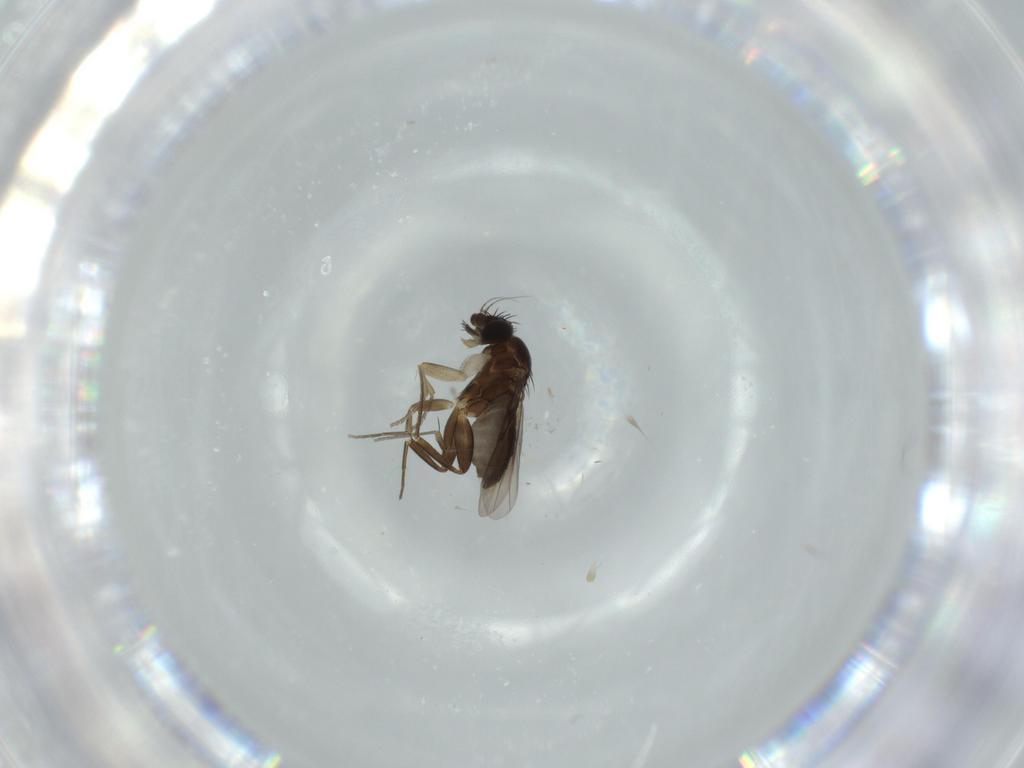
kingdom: Animalia
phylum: Arthropoda
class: Insecta
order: Diptera
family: Phoridae
